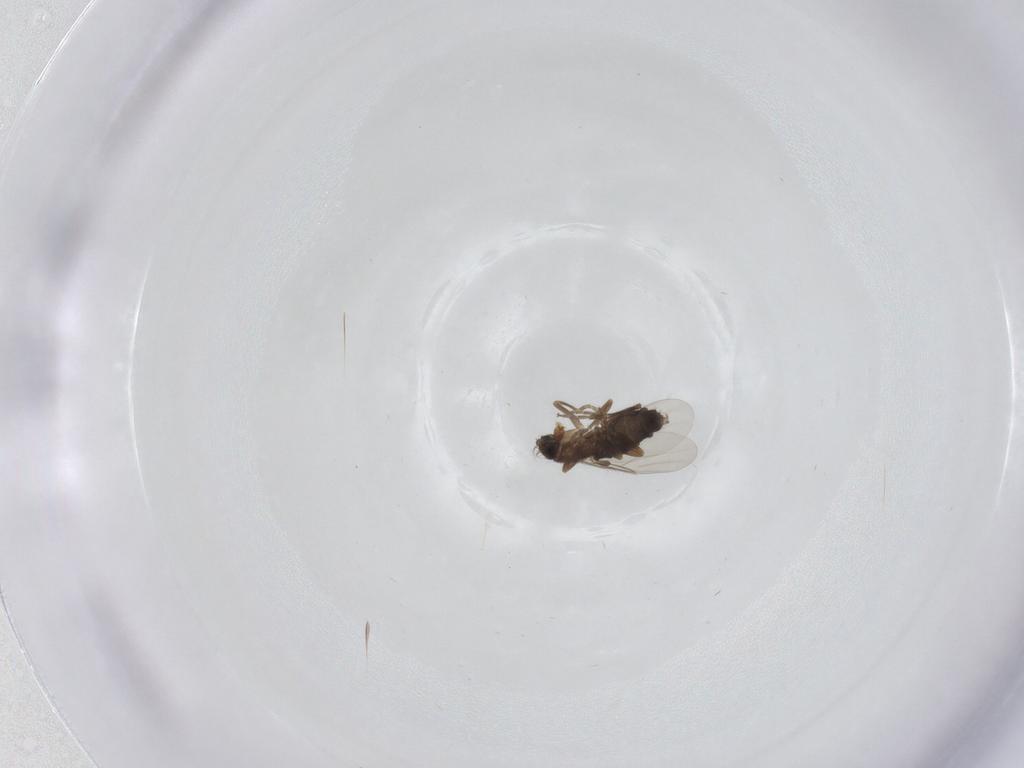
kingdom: Animalia
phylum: Arthropoda
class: Insecta
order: Diptera
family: Phoridae
